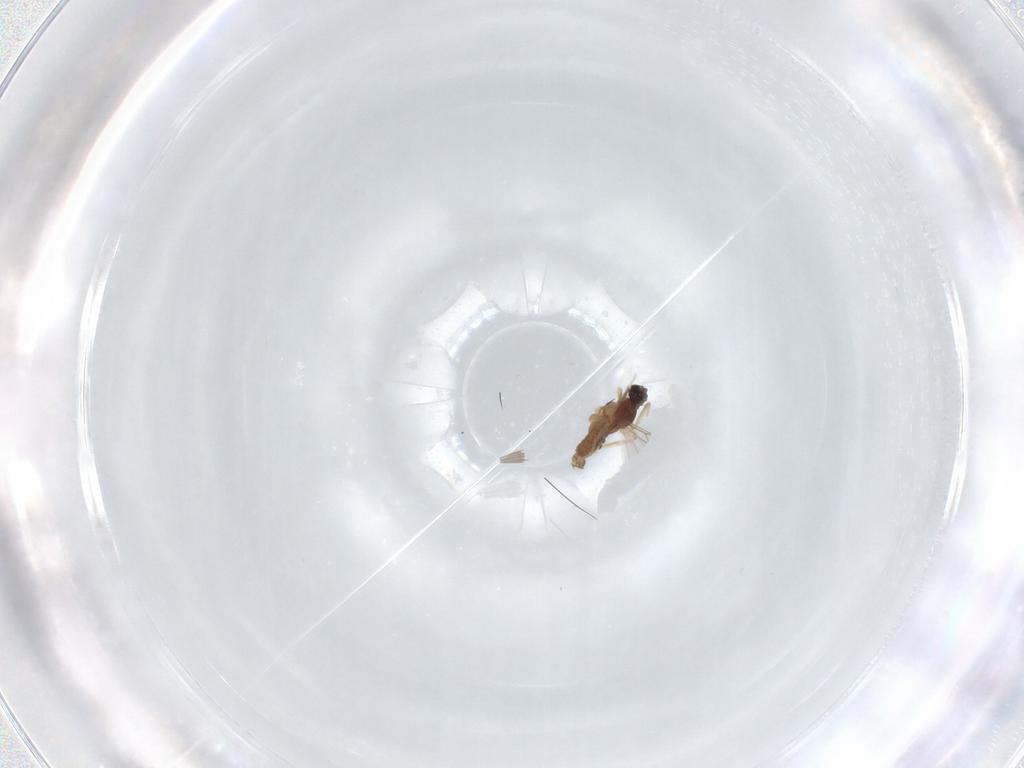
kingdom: Animalia
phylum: Arthropoda
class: Insecta
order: Diptera
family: Cecidomyiidae
